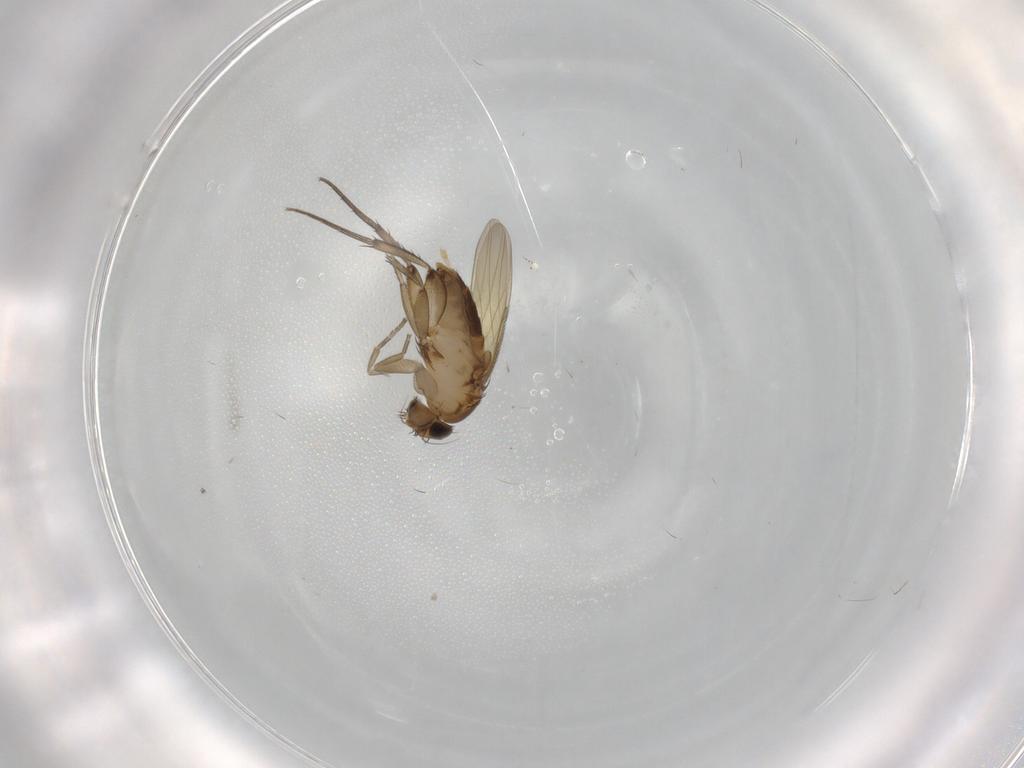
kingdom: Animalia
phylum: Arthropoda
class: Insecta
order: Diptera
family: Phoridae
